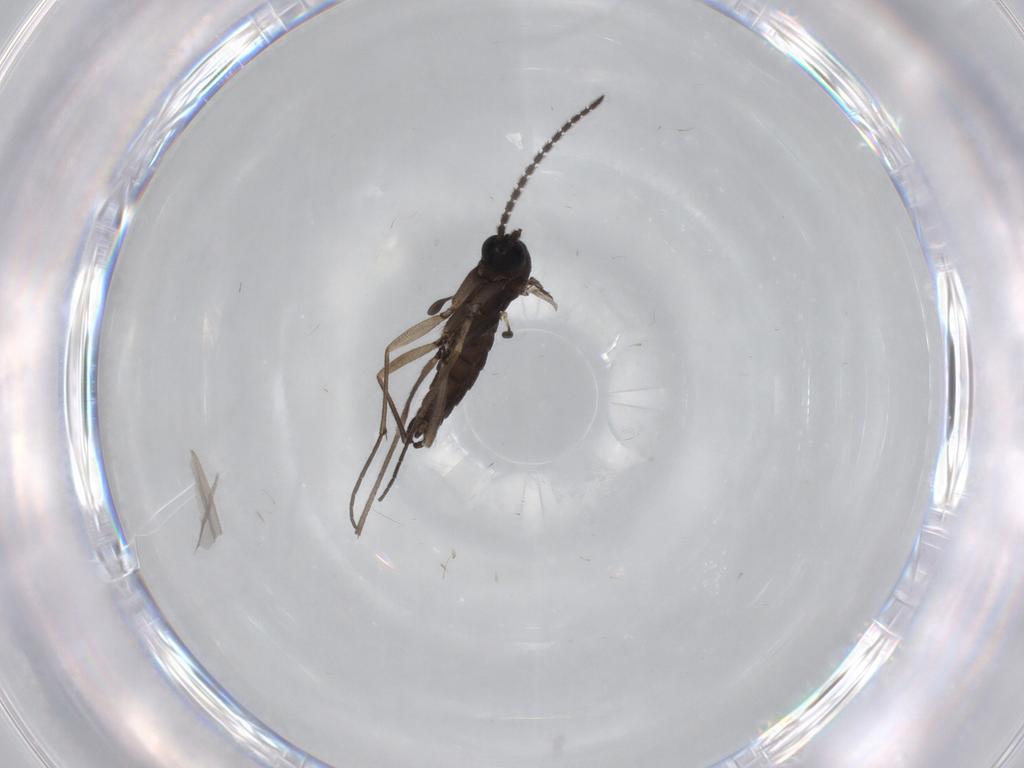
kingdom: Animalia
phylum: Arthropoda
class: Insecta
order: Diptera
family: Sciaridae
